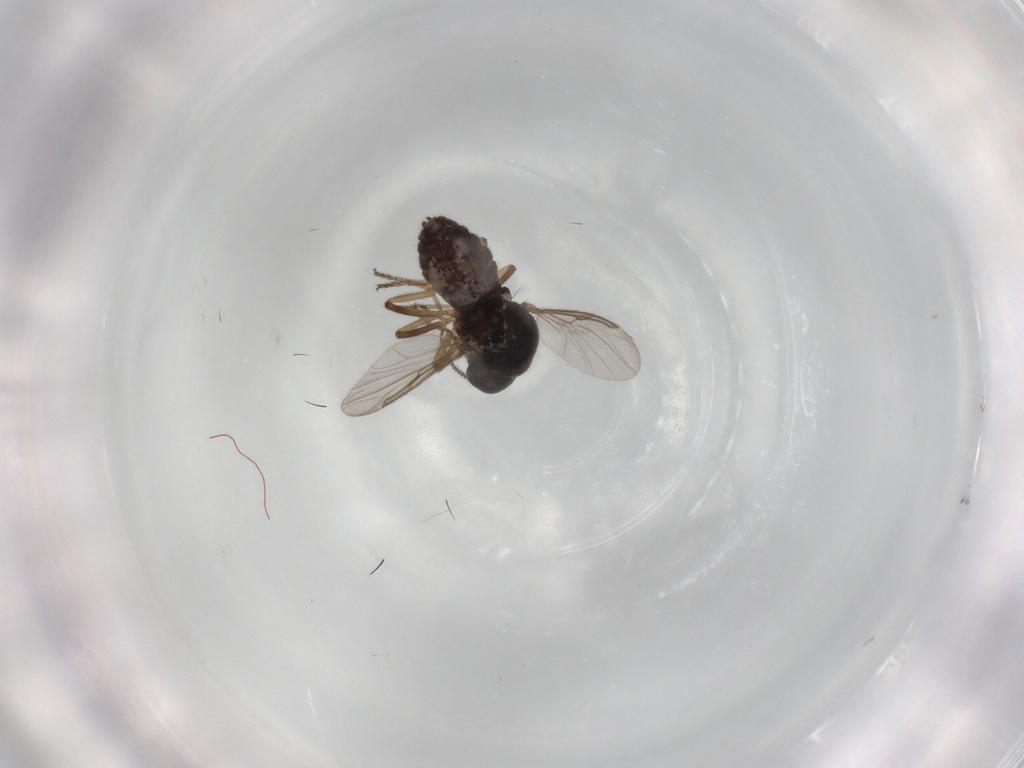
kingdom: Animalia
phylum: Arthropoda
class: Insecta
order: Diptera
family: Ceratopogonidae
